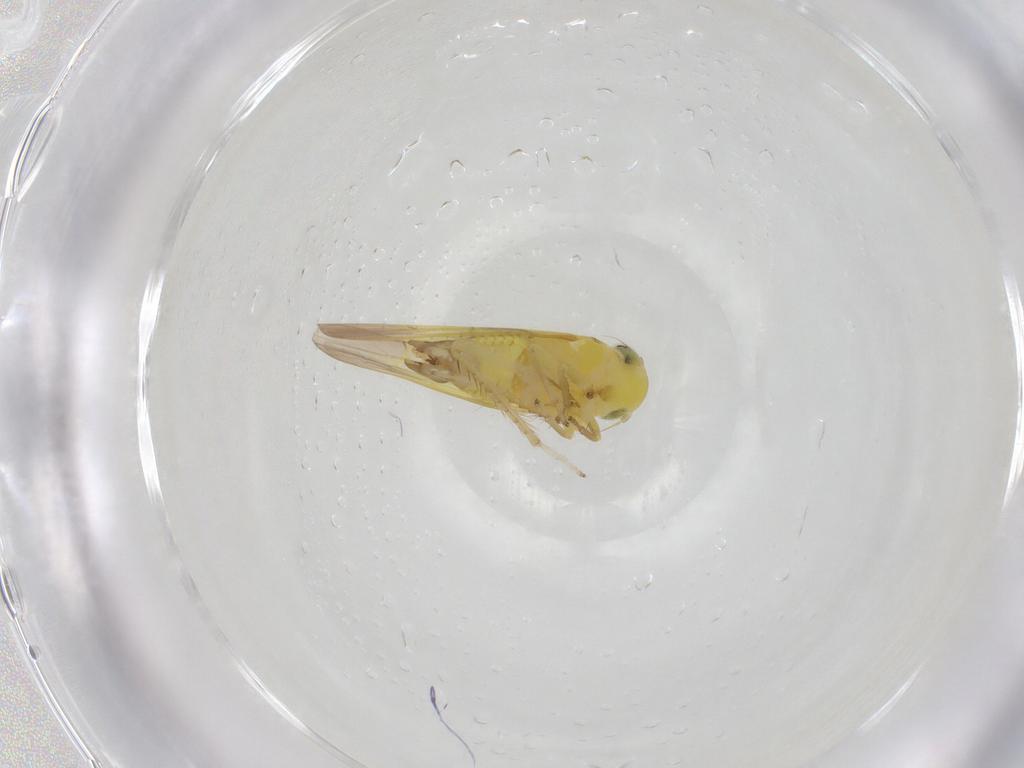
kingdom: Animalia
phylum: Arthropoda
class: Insecta
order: Hemiptera
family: Cicadellidae
